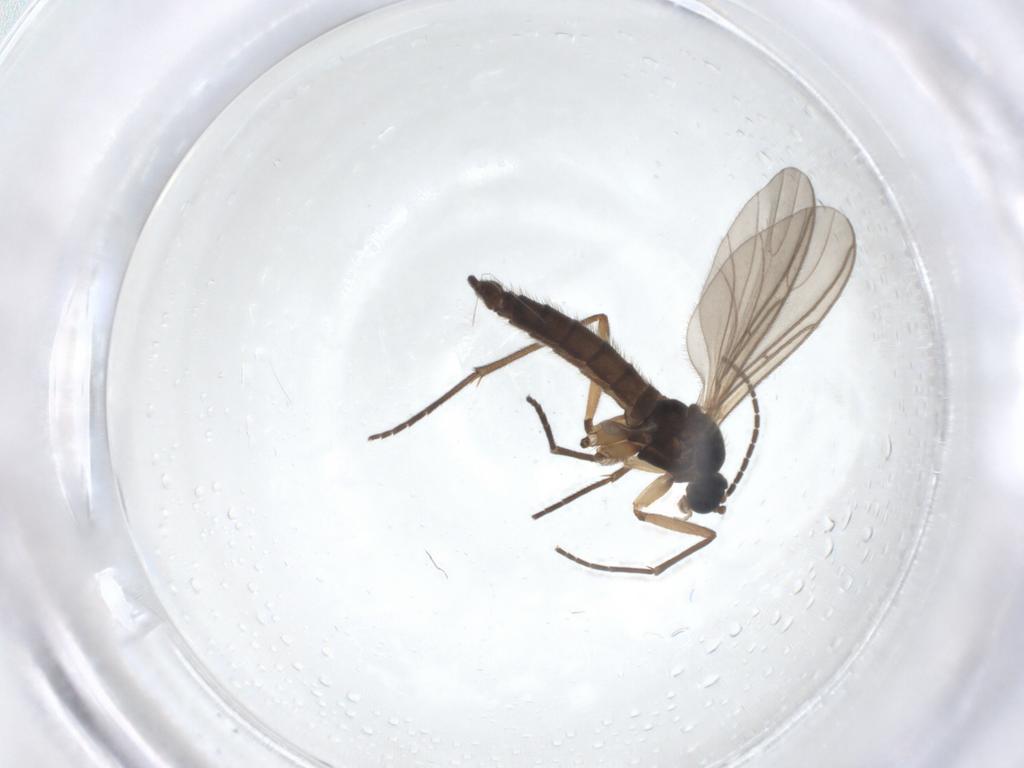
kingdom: Animalia
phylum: Arthropoda
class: Insecta
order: Diptera
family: Sciaridae
